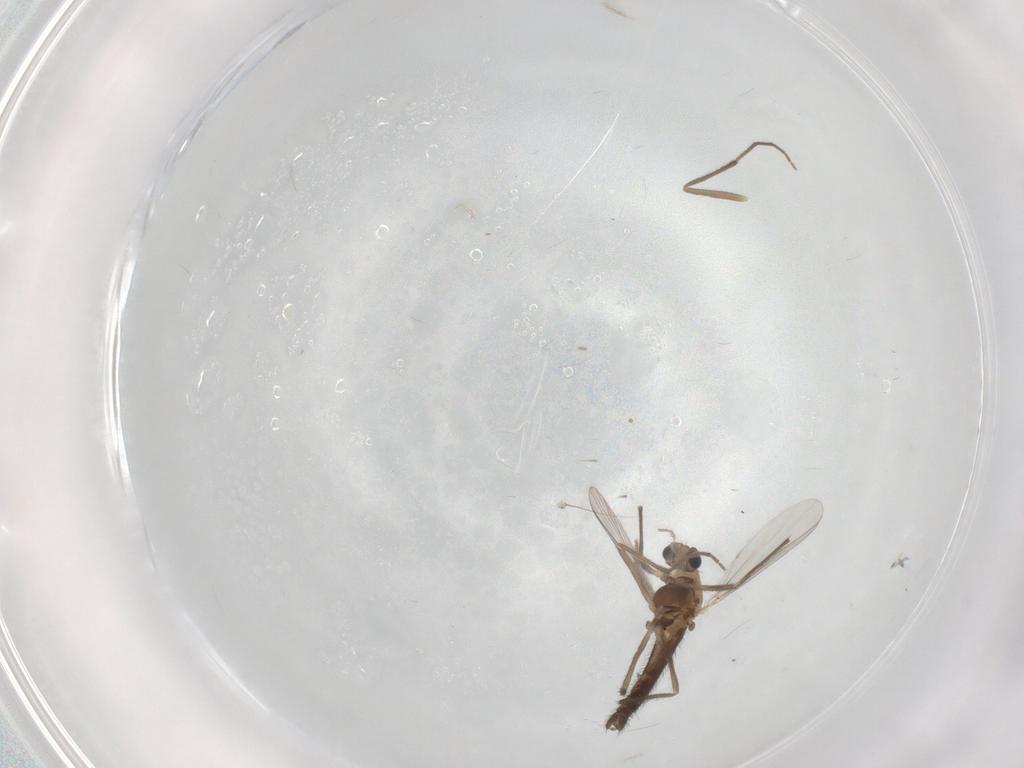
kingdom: Animalia
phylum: Arthropoda
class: Insecta
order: Diptera
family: Chironomidae
